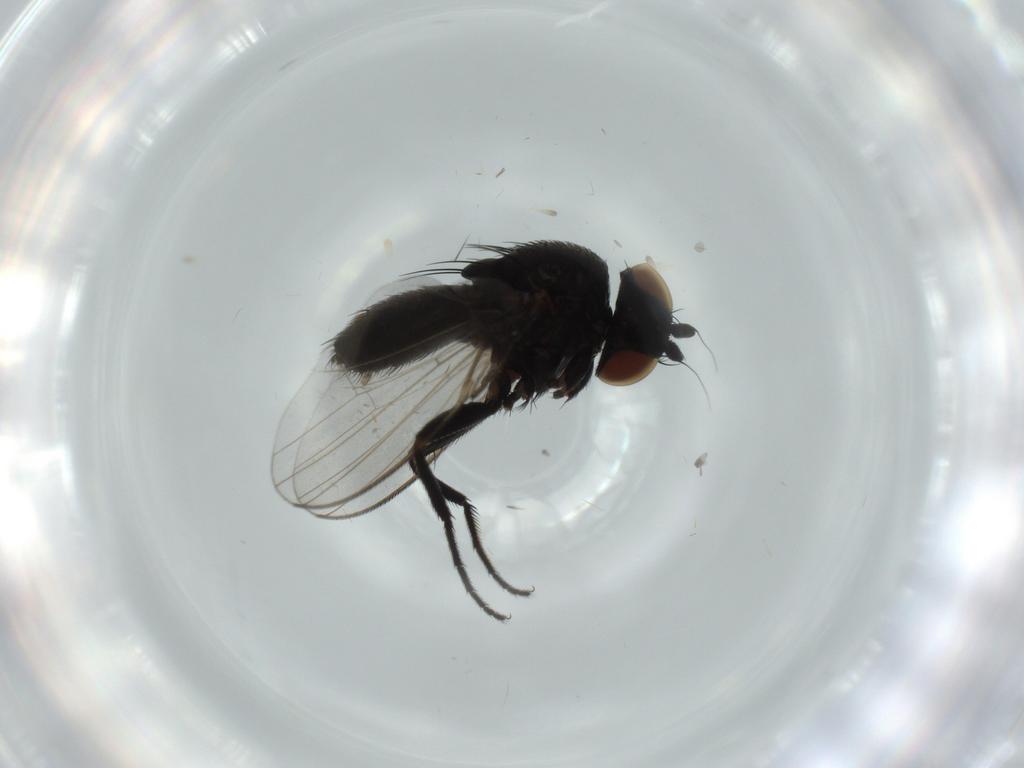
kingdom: Animalia
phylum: Arthropoda
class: Insecta
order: Diptera
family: Milichiidae
